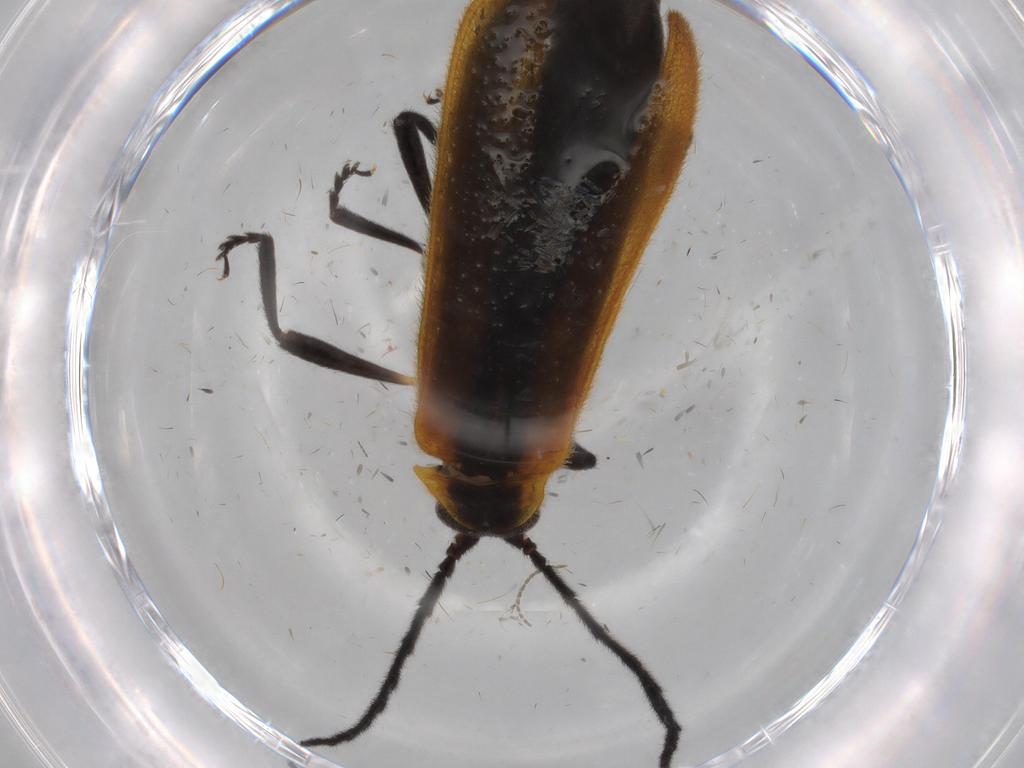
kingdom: Animalia
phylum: Arthropoda
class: Insecta
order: Coleoptera
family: Lycidae
